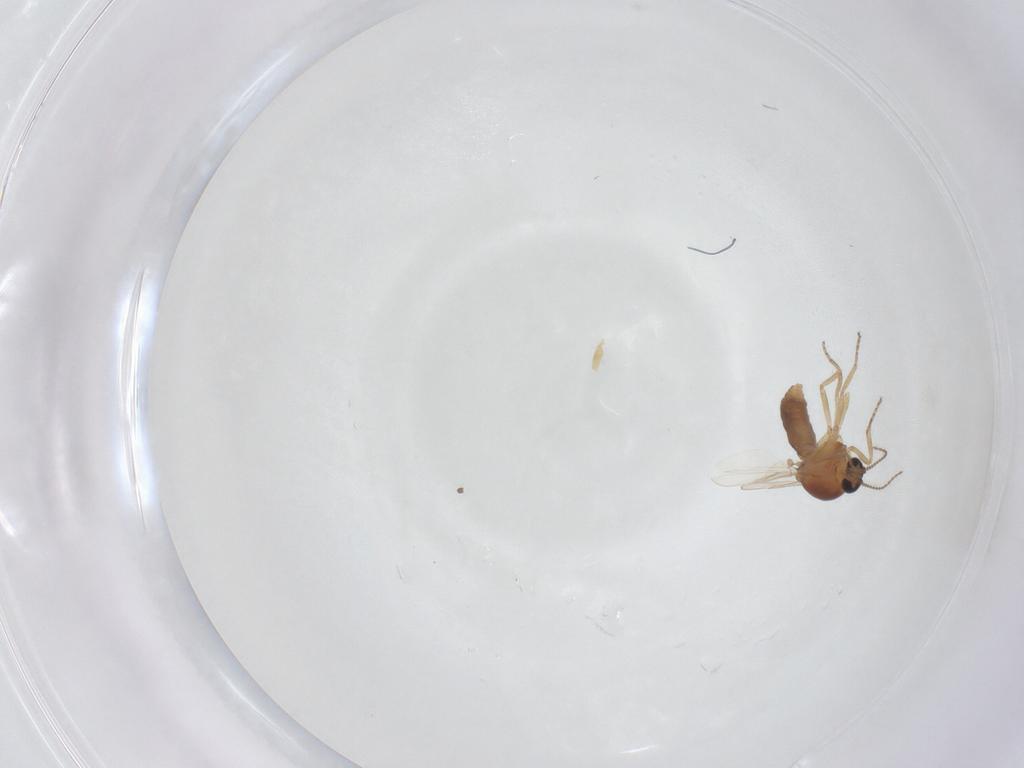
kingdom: Animalia
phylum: Arthropoda
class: Insecta
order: Diptera
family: Ceratopogonidae
